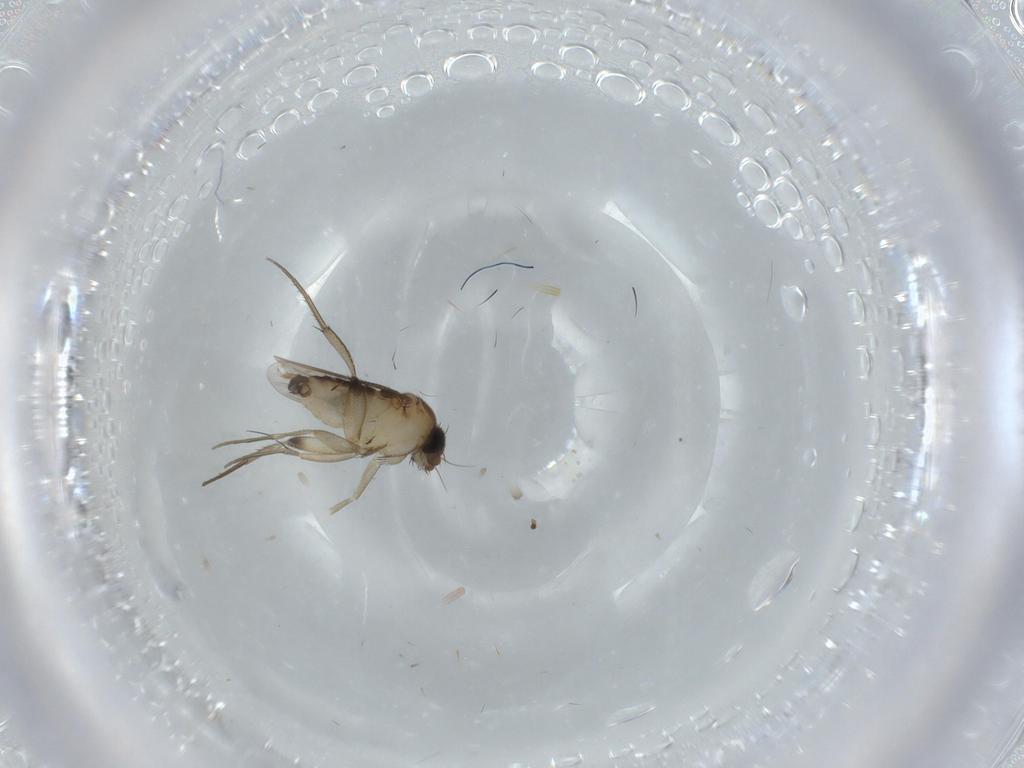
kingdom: Animalia
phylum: Arthropoda
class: Insecta
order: Diptera
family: Phoridae
